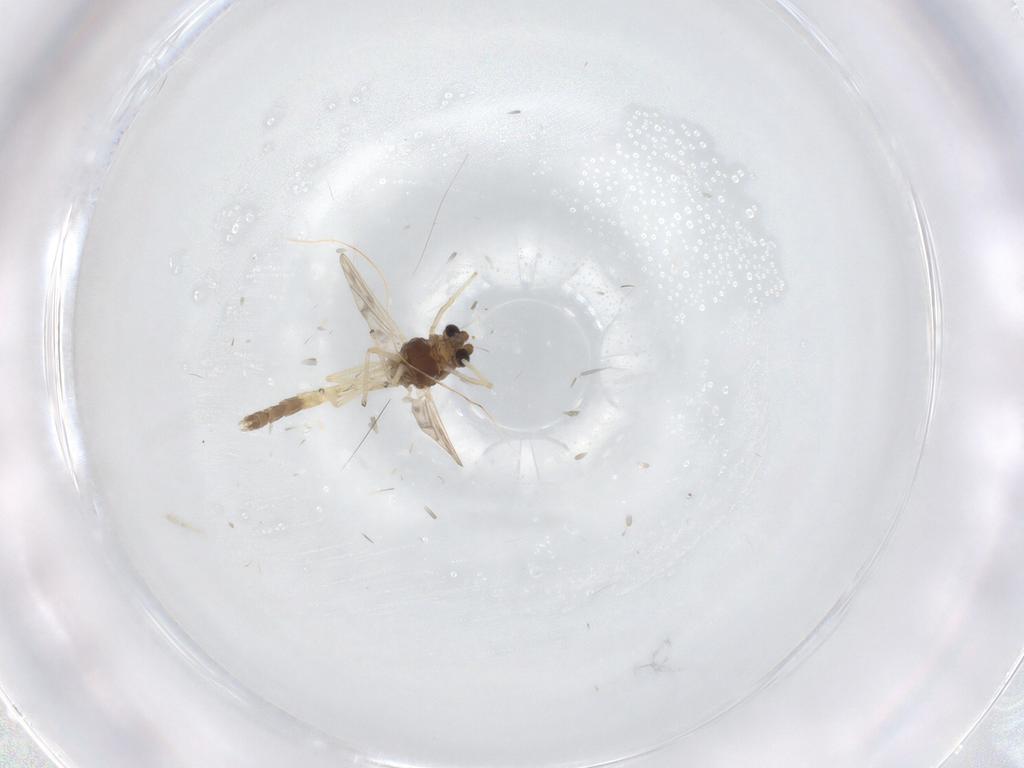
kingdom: Animalia
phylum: Arthropoda
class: Insecta
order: Diptera
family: Chironomidae
